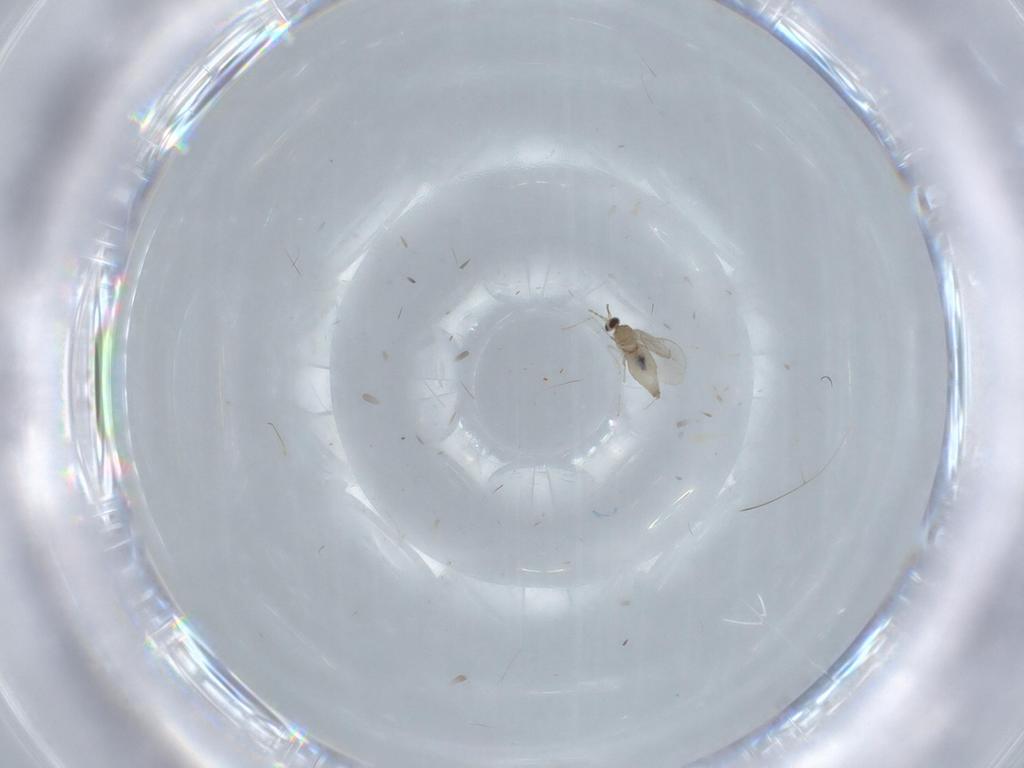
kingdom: Animalia
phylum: Arthropoda
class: Insecta
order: Diptera
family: Cecidomyiidae
